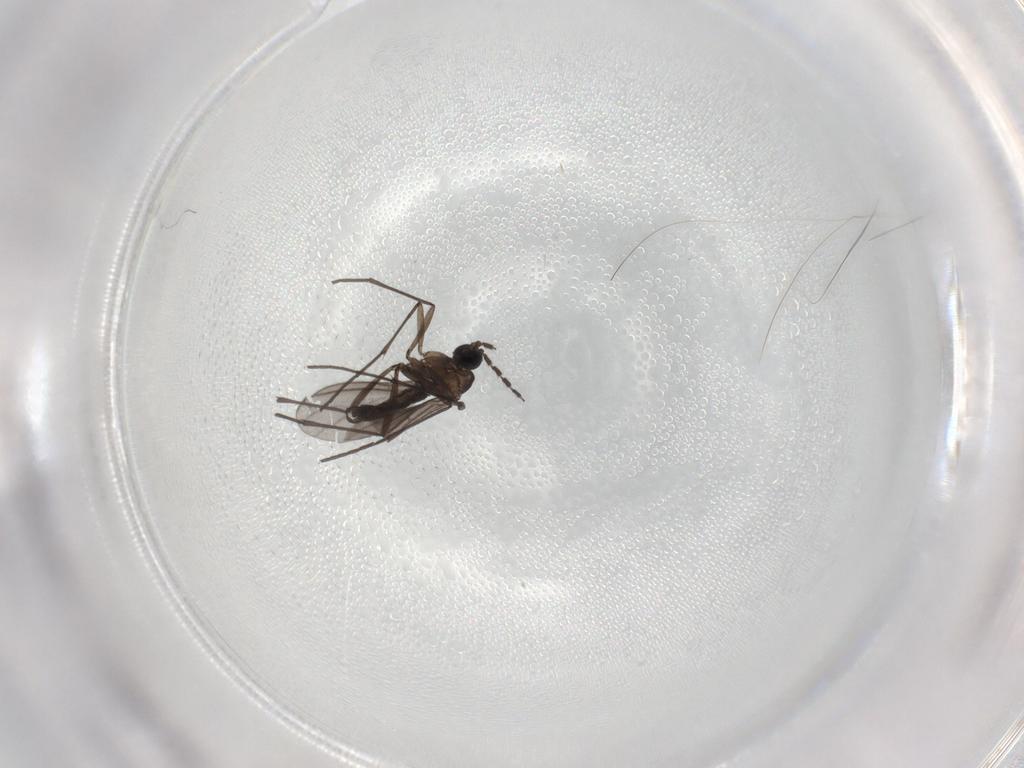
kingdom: Animalia
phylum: Arthropoda
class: Insecta
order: Diptera
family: Sciaridae
